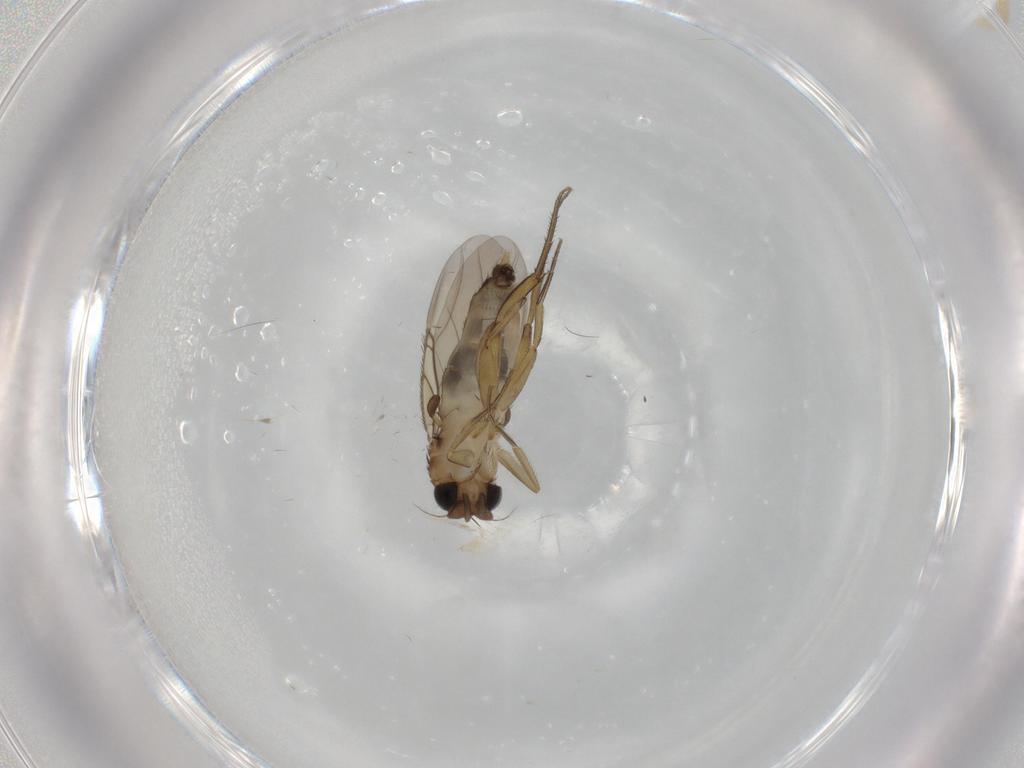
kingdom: Animalia
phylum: Arthropoda
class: Insecta
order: Diptera
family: Phoridae
